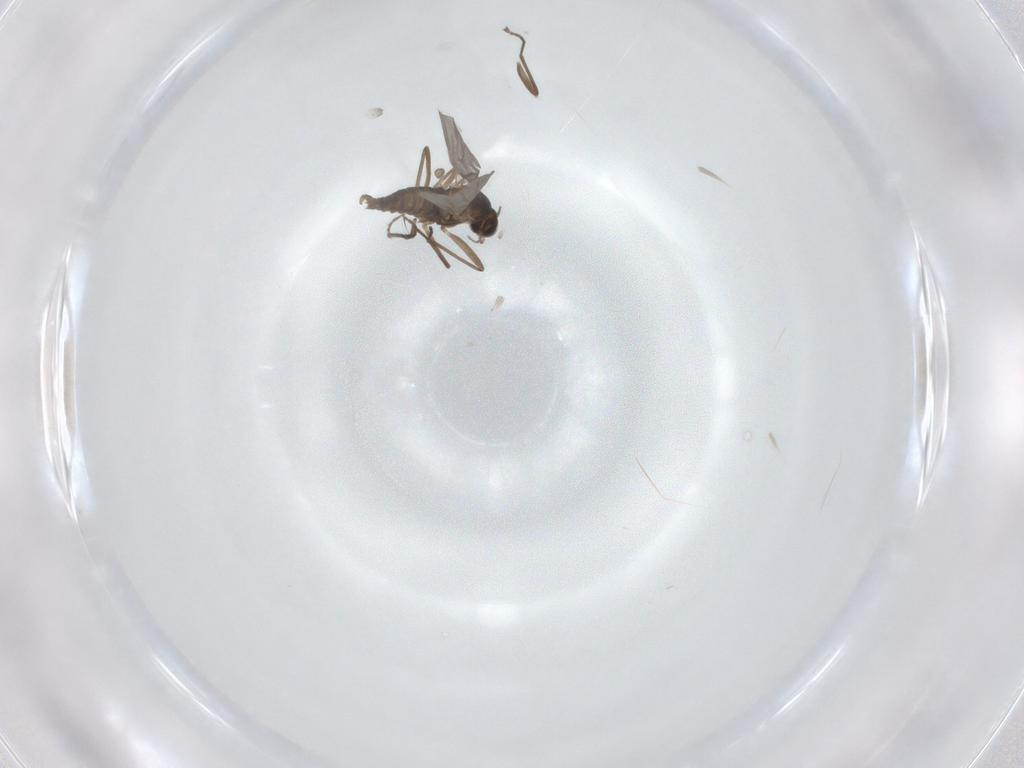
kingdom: Animalia
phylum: Arthropoda
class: Insecta
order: Diptera
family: Cecidomyiidae
